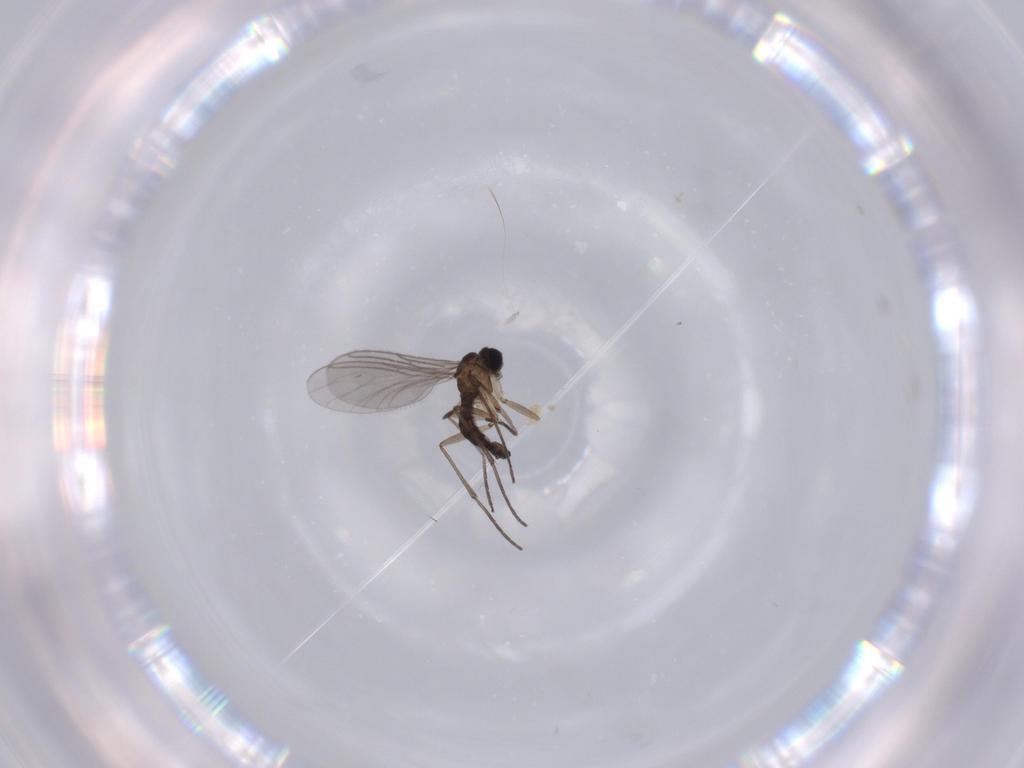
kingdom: Animalia
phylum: Arthropoda
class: Insecta
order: Diptera
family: Sciaridae
